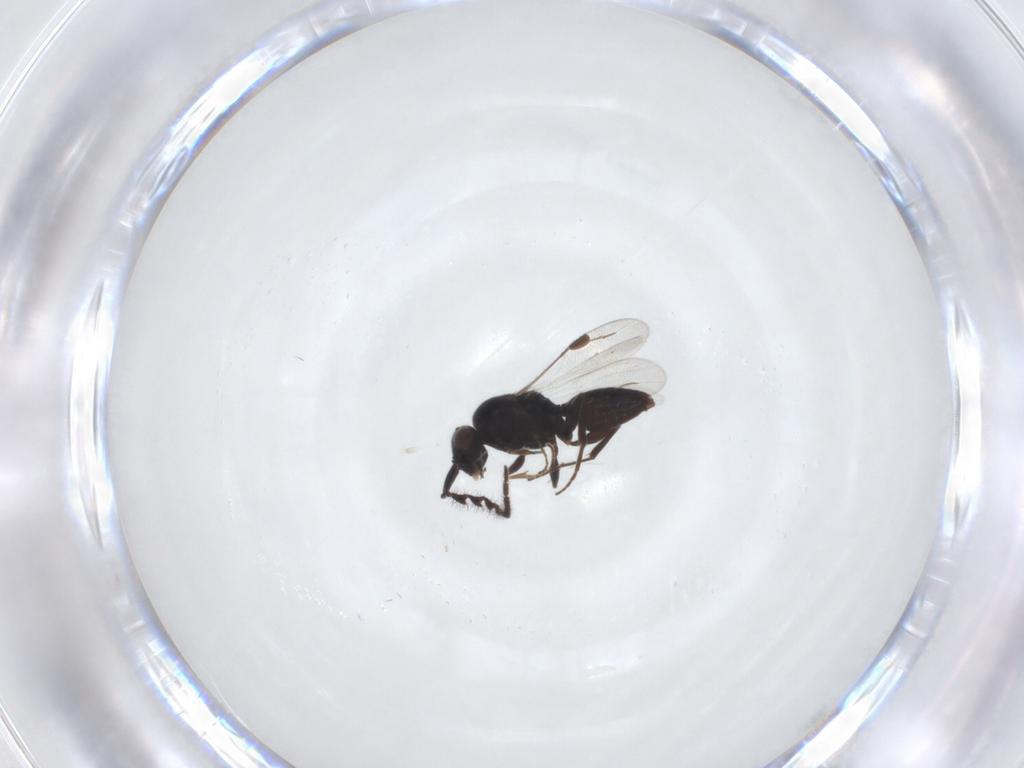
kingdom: Animalia
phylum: Arthropoda
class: Insecta
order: Hymenoptera
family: Megaspilidae
